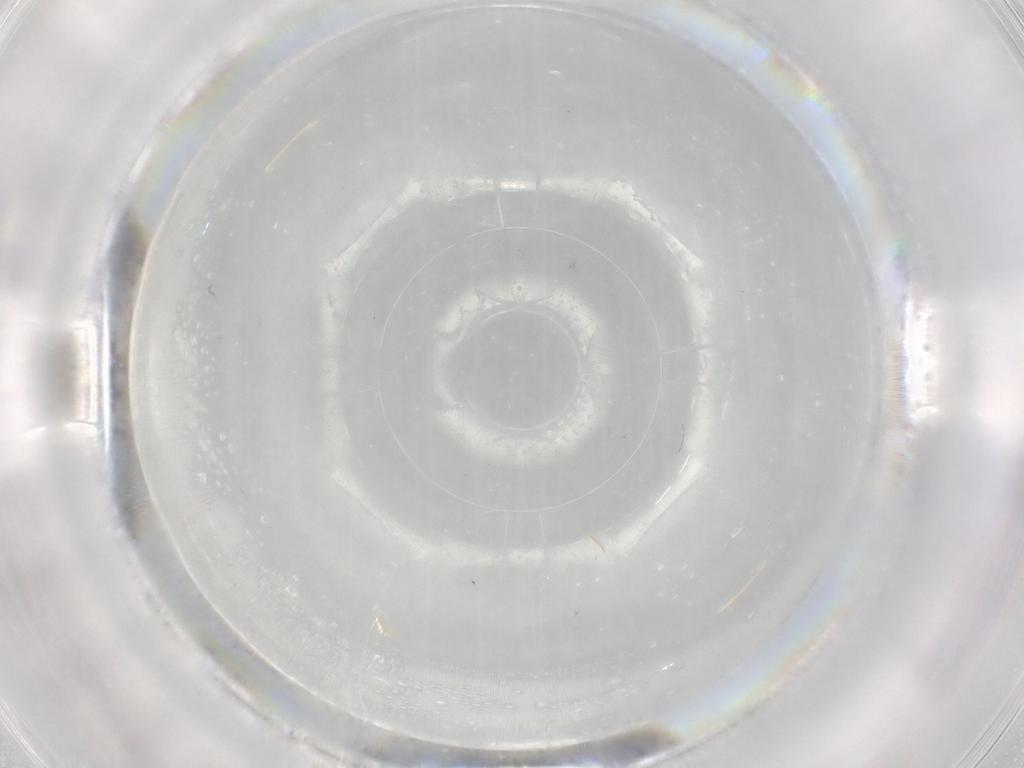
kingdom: Animalia
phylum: Arthropoda
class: Insecta
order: Diptera
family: Cecidomyiidae
